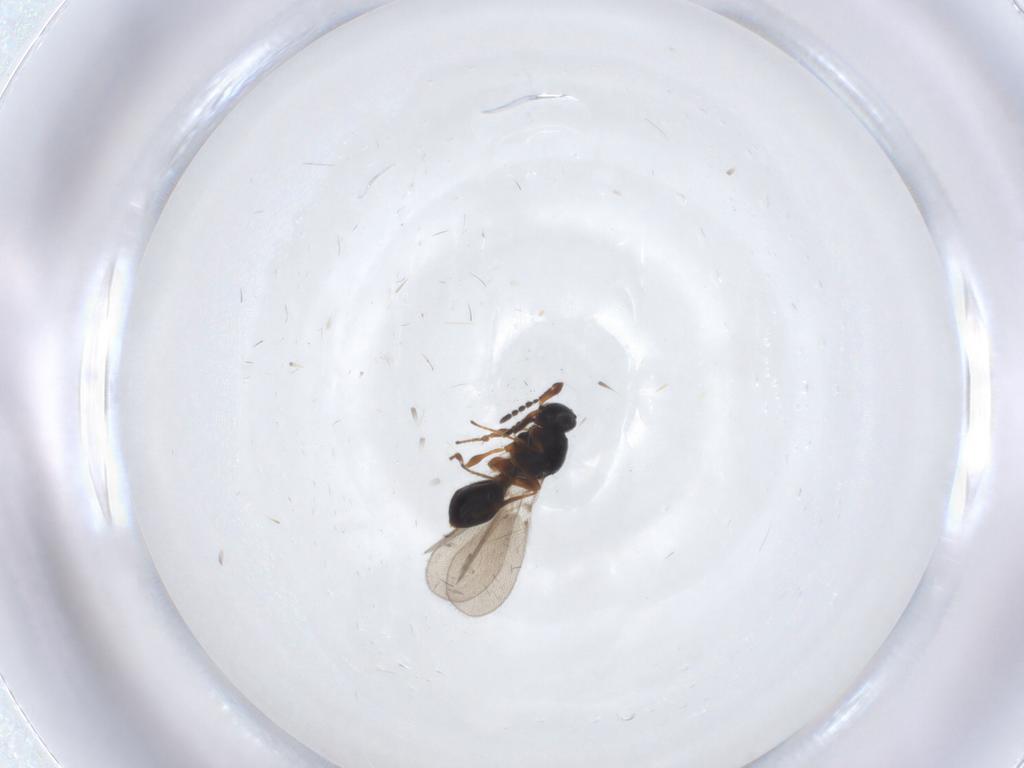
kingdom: Animalia
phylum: Arthropoda
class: Insecta
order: Hymenoptera
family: Platygastridae
